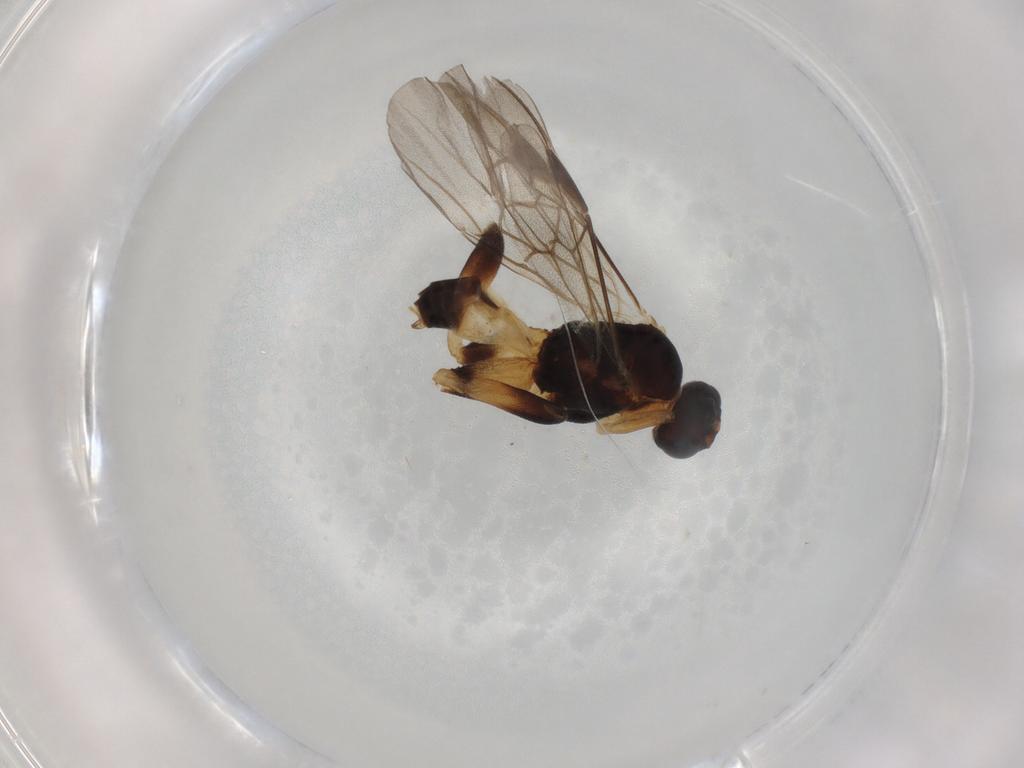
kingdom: Animalia
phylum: Arthropoda
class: Insecta
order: Hymenoptera
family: Braconidae
